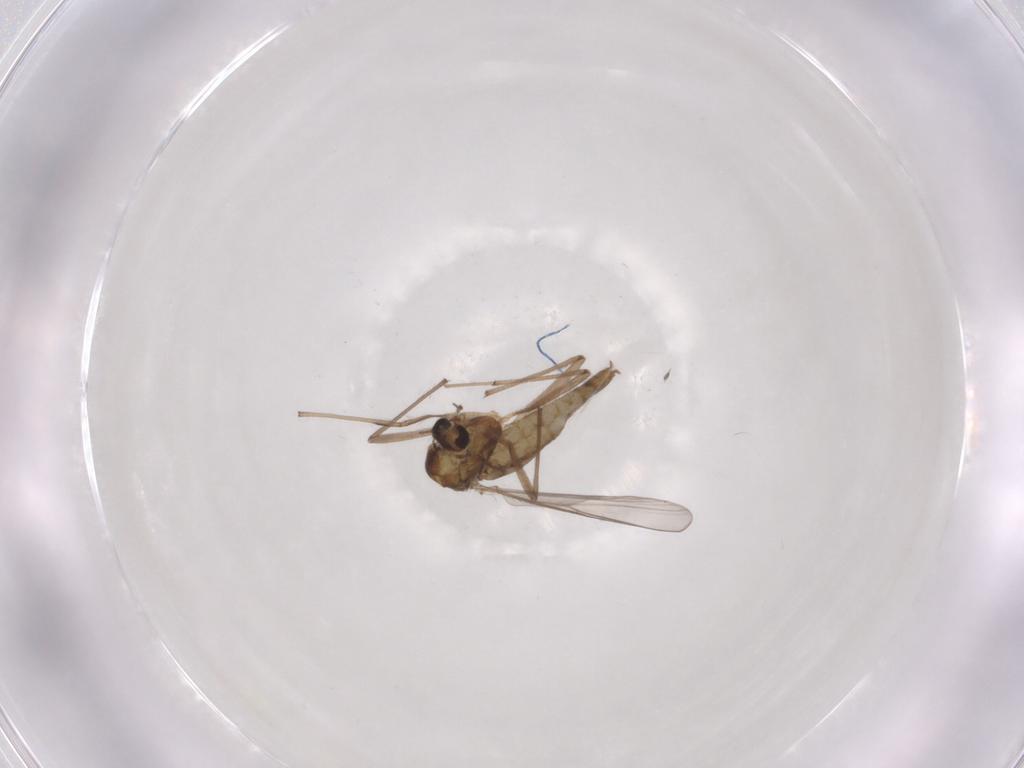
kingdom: Animalia
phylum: Arthropoda
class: Insecta
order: Diptera
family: Chironomidae
